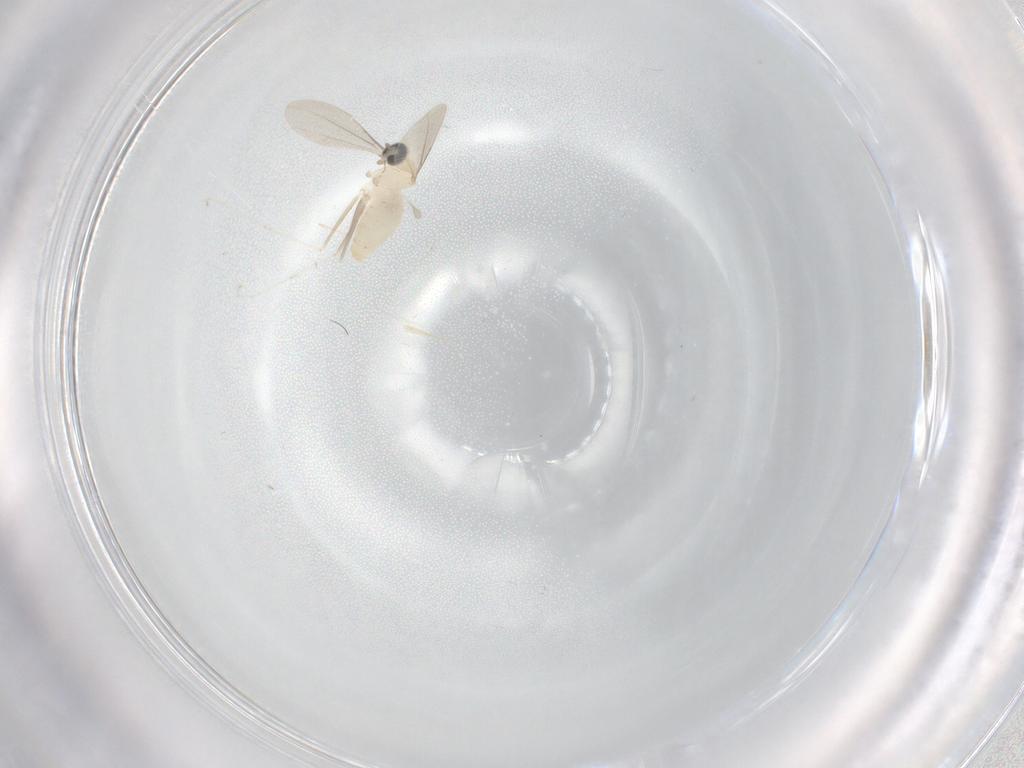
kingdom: Animalia
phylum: Arthropoda
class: Insecta
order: Diptera
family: Cecidomyiidae
